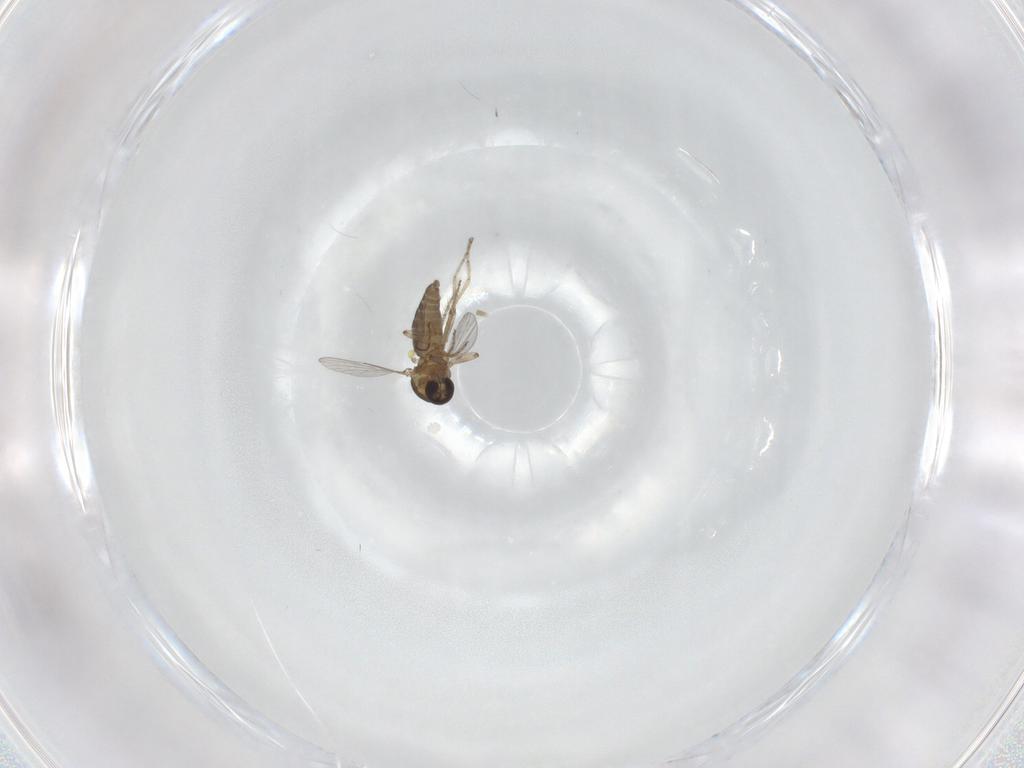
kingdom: Animalia
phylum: Arthropoda
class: Insecta
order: Diptera
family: Ceratopogonidae
